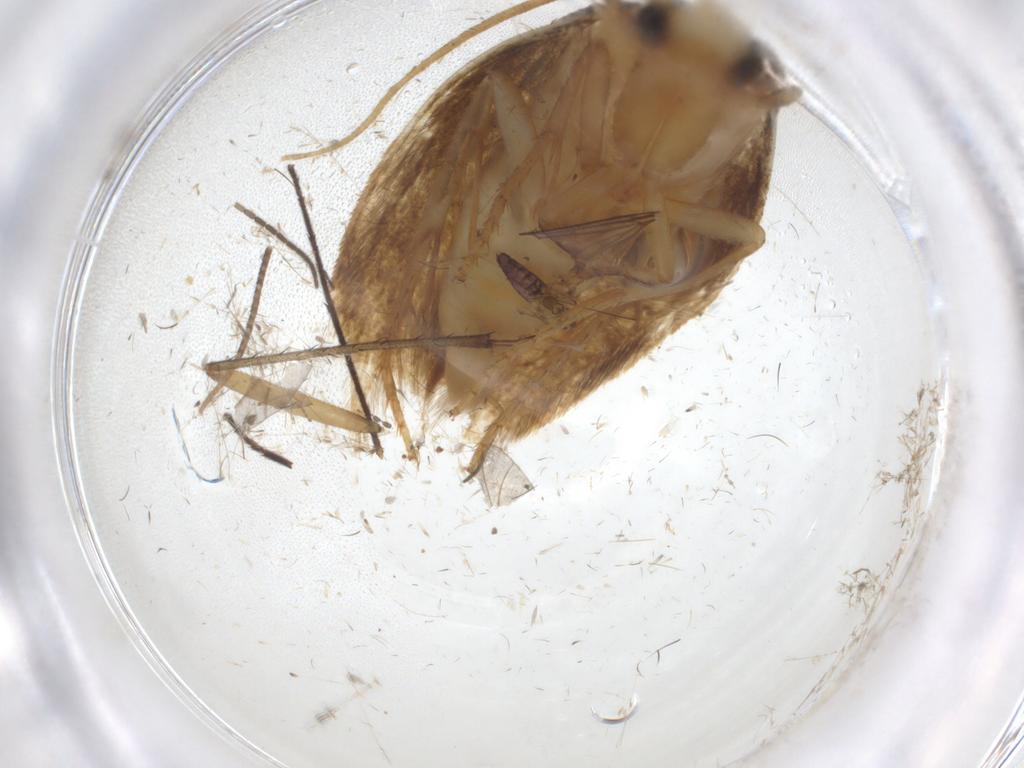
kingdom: Animalia
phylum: Arthropoda
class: Insecta
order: Lepidoptera
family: Tineidae
